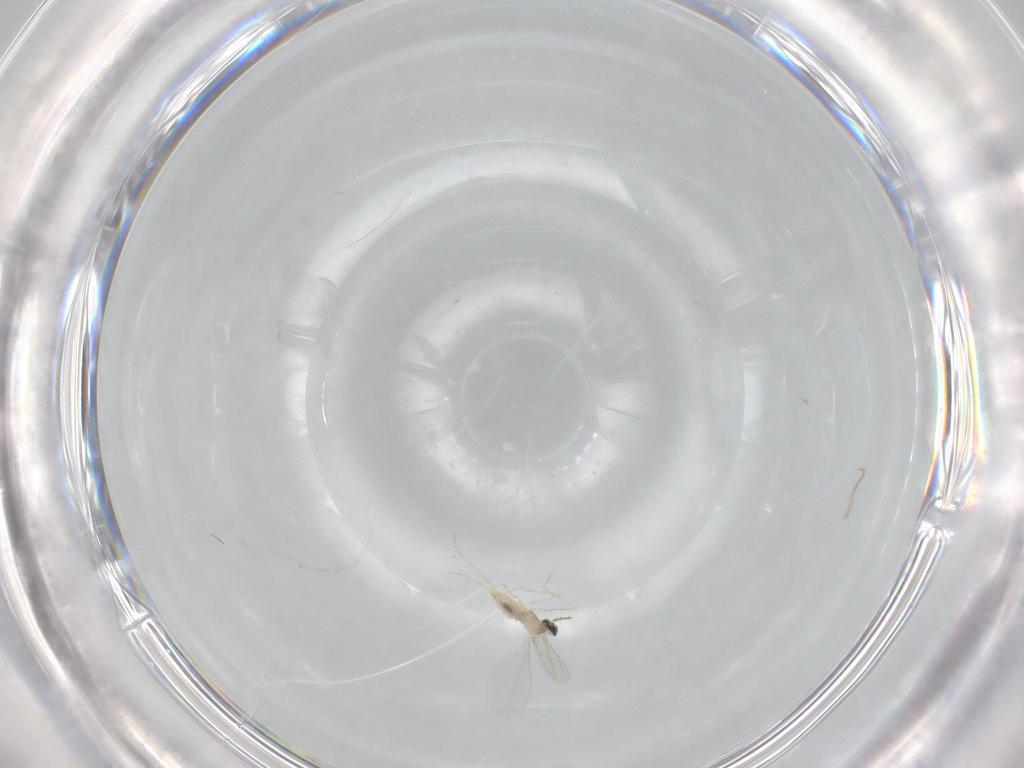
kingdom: Animalia
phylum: Arthropoda
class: Insecta
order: Diptera
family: Cecidomyiidae
